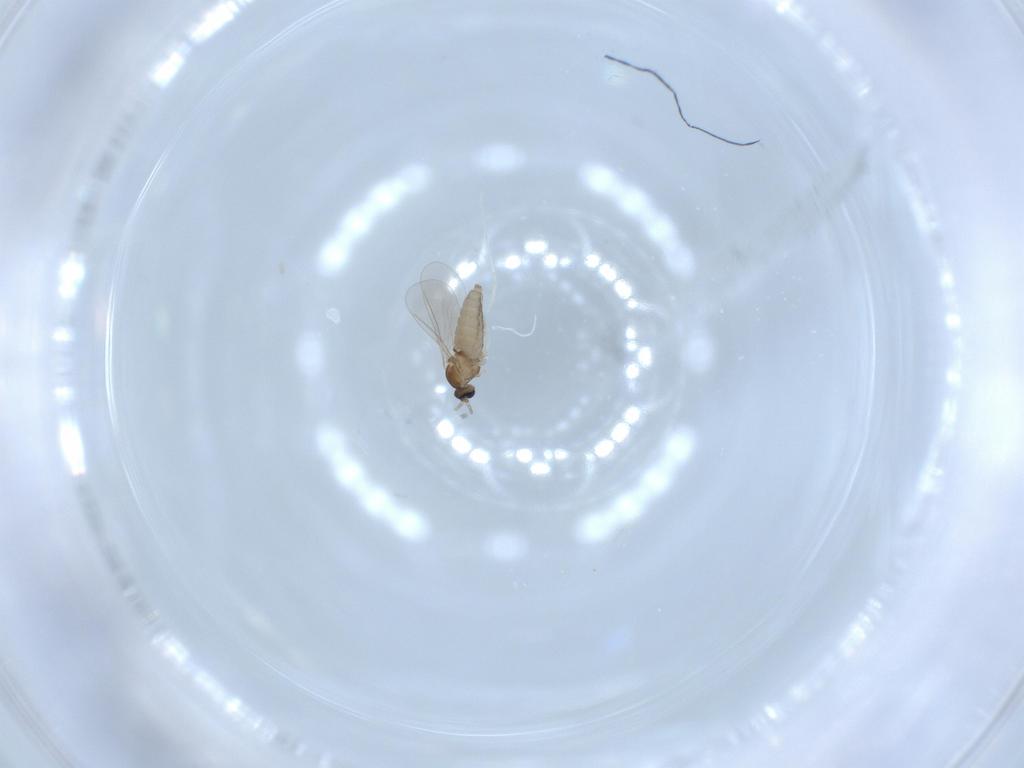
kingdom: Animalia
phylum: Arthropoda
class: Insecta
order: Diptera
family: Cecidomyiidae
